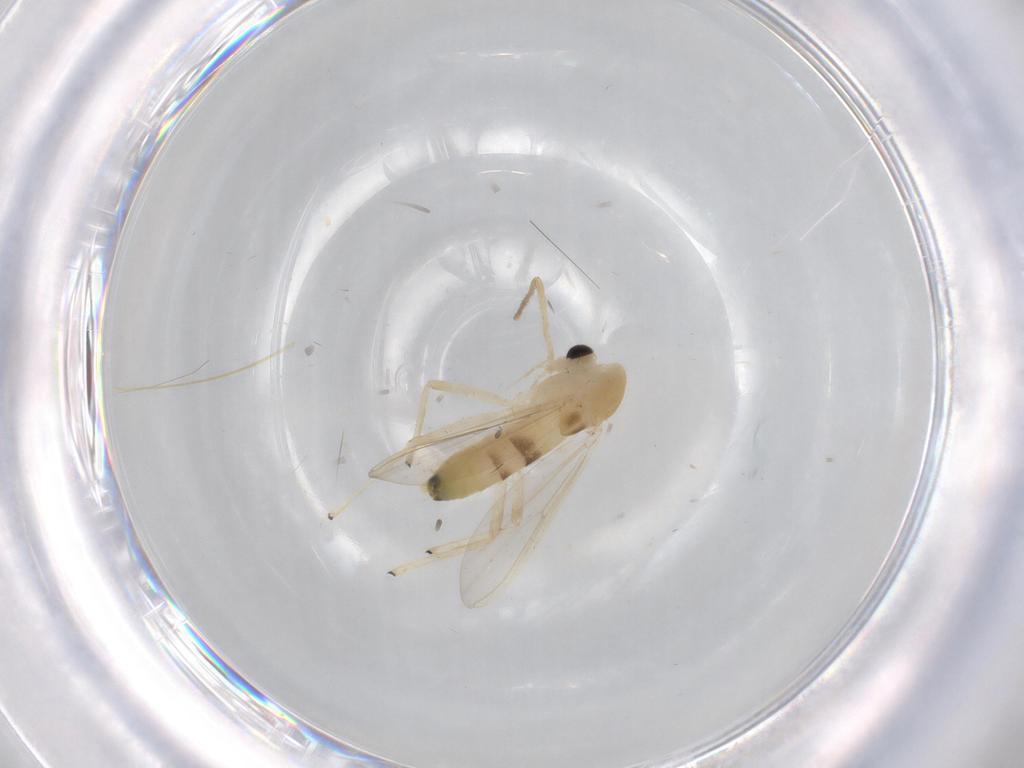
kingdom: Animalia
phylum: Arthropoda
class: Insecta
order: Diptera
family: Chironomidae
